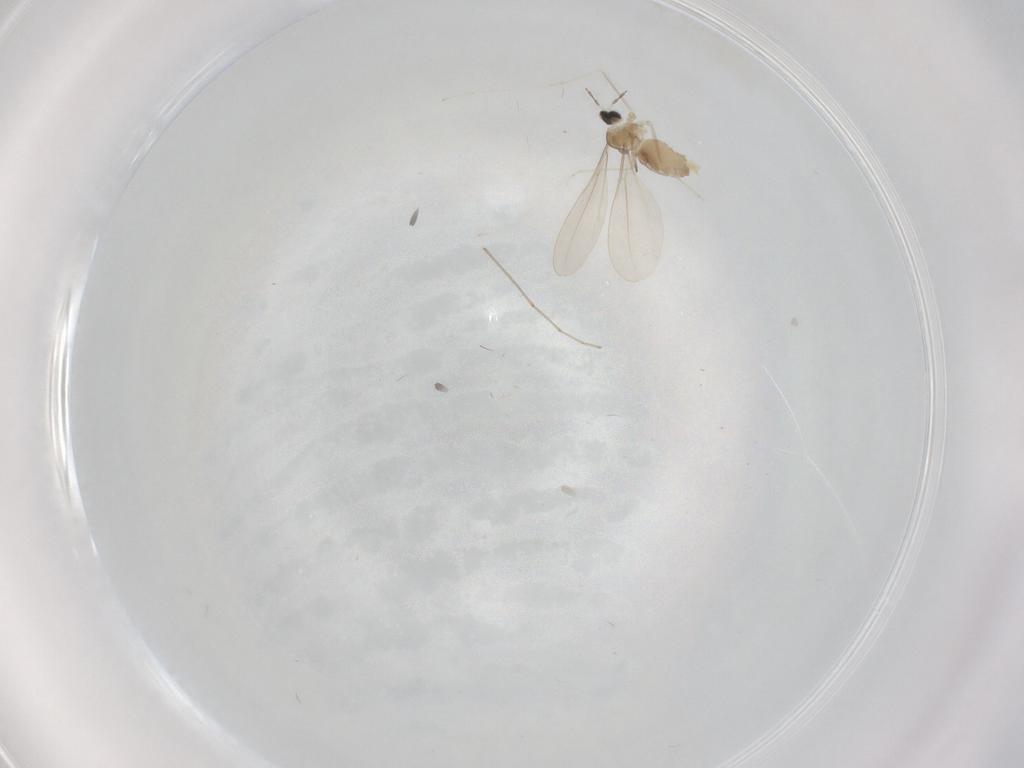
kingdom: Animalia
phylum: Arthropoda
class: Insecta
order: Diptera
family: Cecidomyiidae
